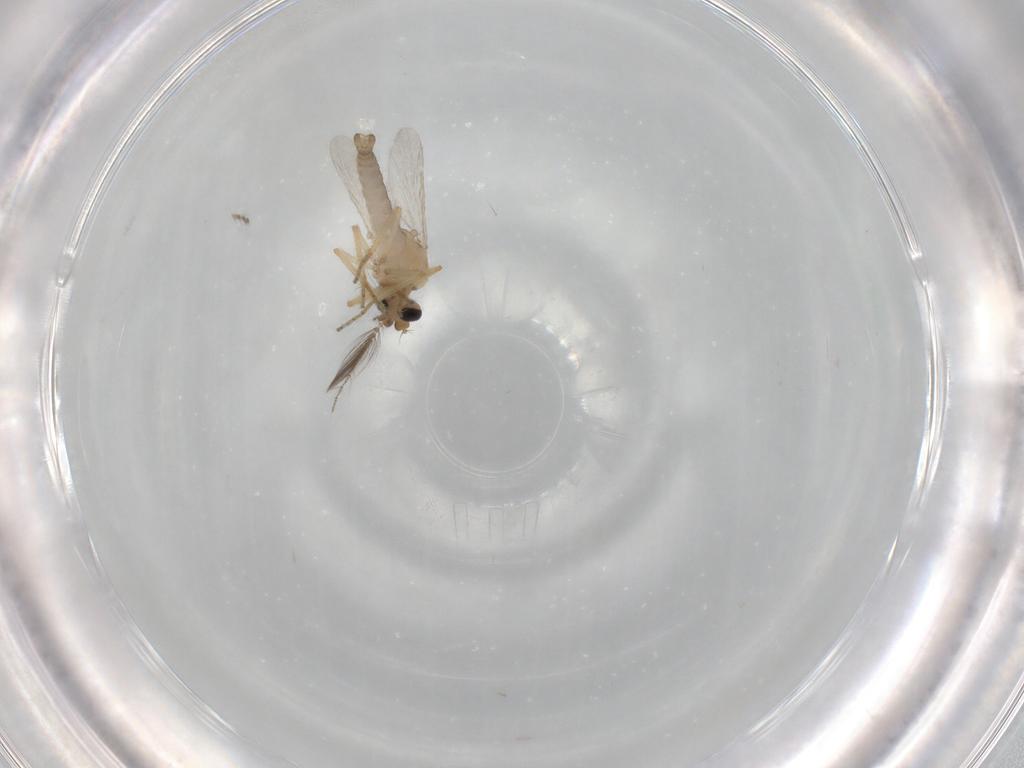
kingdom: Animalia
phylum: Arthropoda
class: Insecta
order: Diptera
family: Ceratopogonidae
